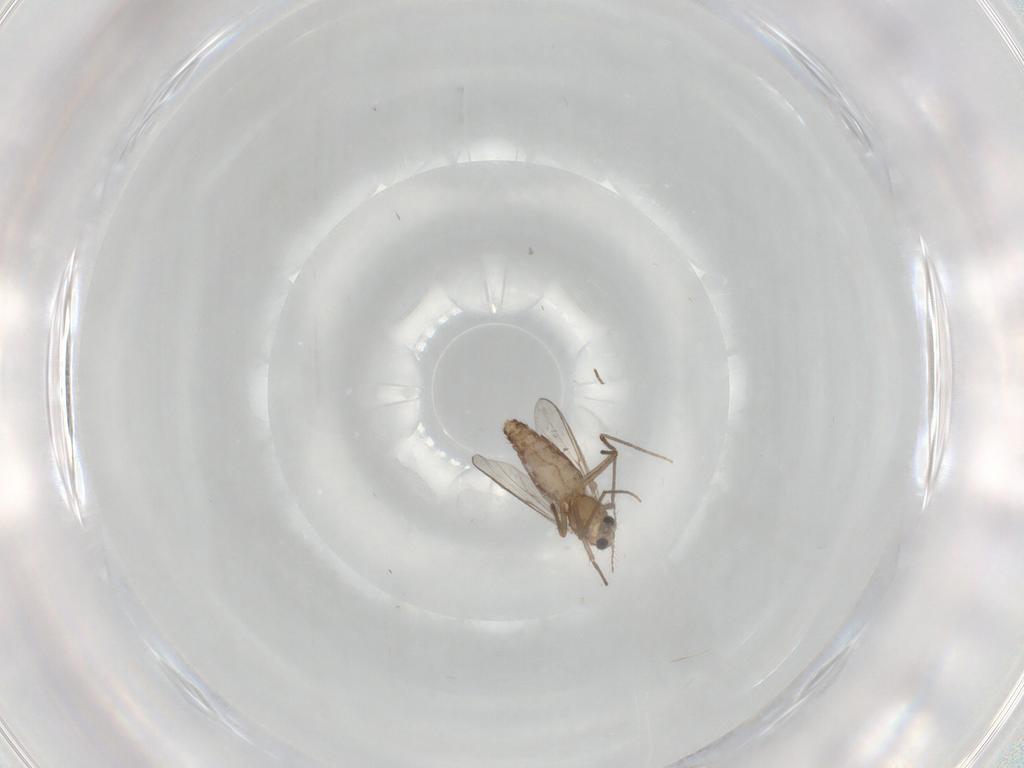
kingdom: Animalia
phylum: Arthropoda
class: Insecta
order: Diptera
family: Chironomidae
